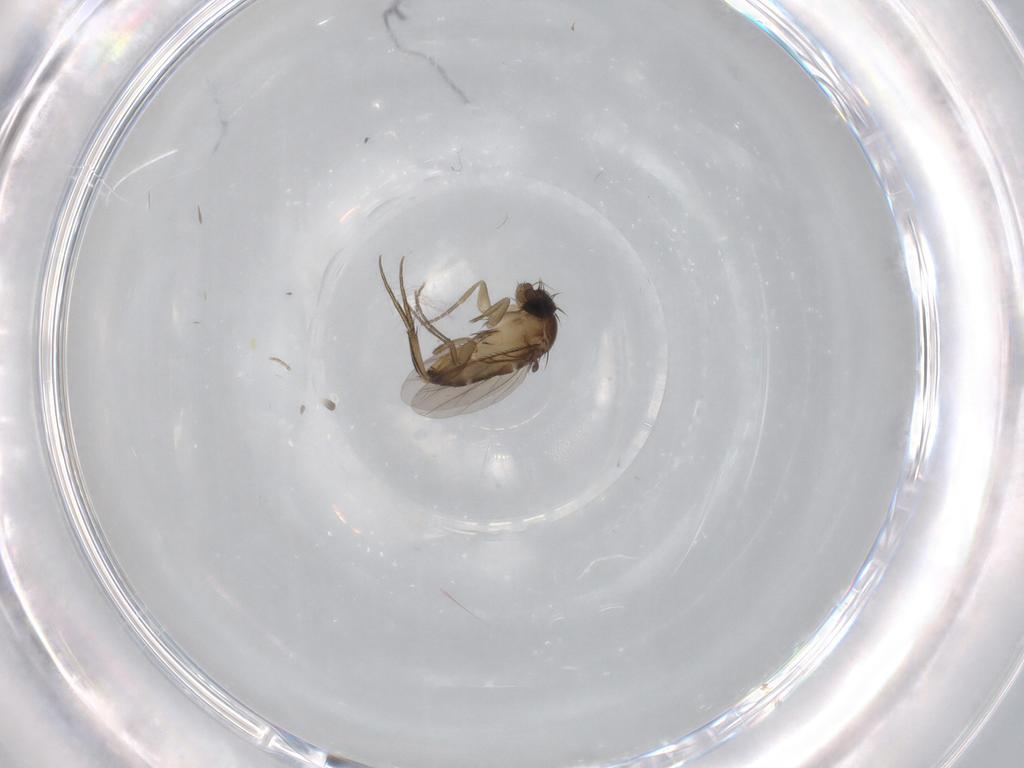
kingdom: Animalia
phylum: Arthropoda
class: Insecta
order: Diptera
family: Phoridae
